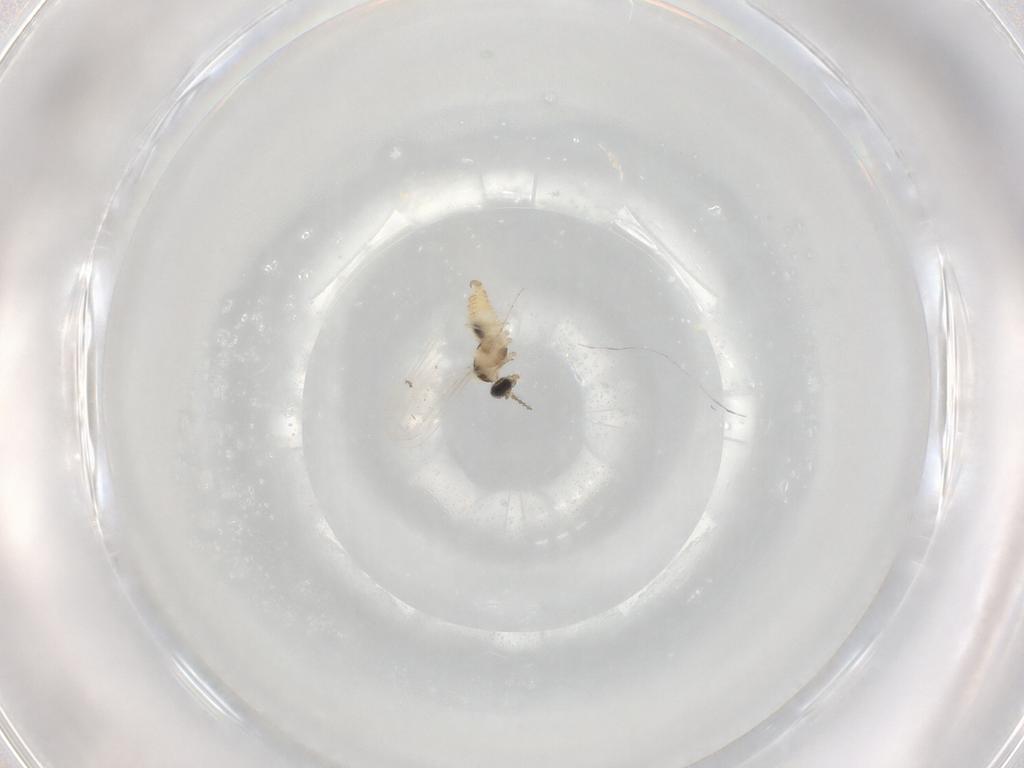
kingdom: Animalia
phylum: Arthropoda
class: Insecta
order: Diptera
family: Cecidomyiidae
